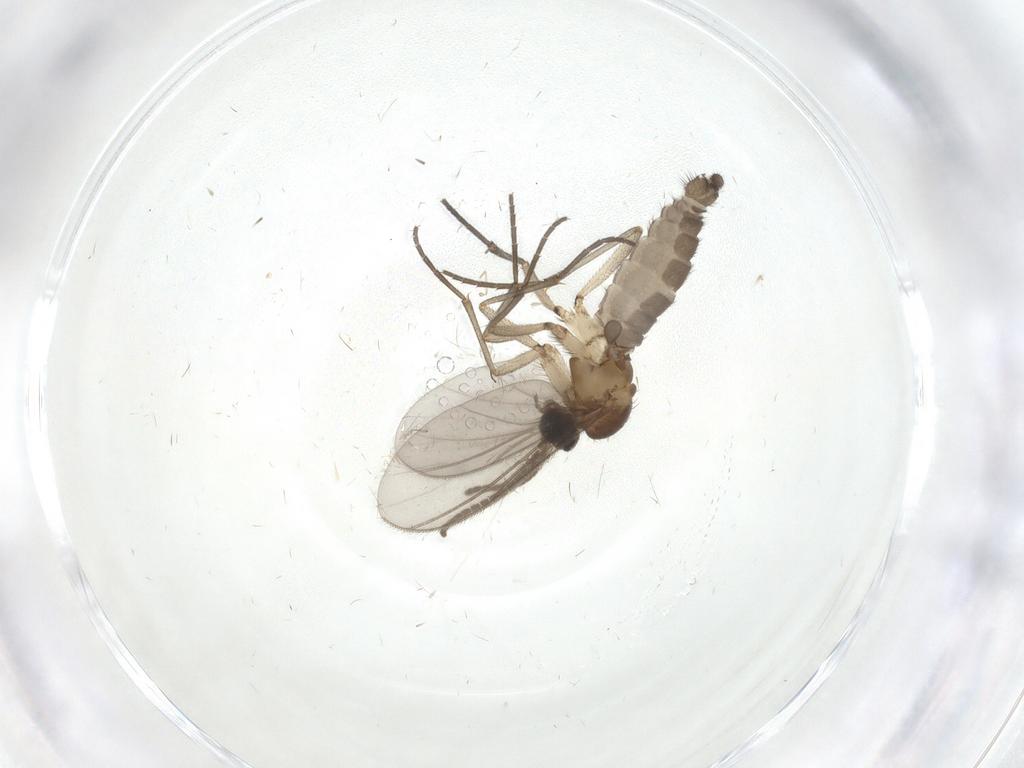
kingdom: Animalia
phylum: Arthropoda
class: Insecta
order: Diptera
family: Mycetophilidae
